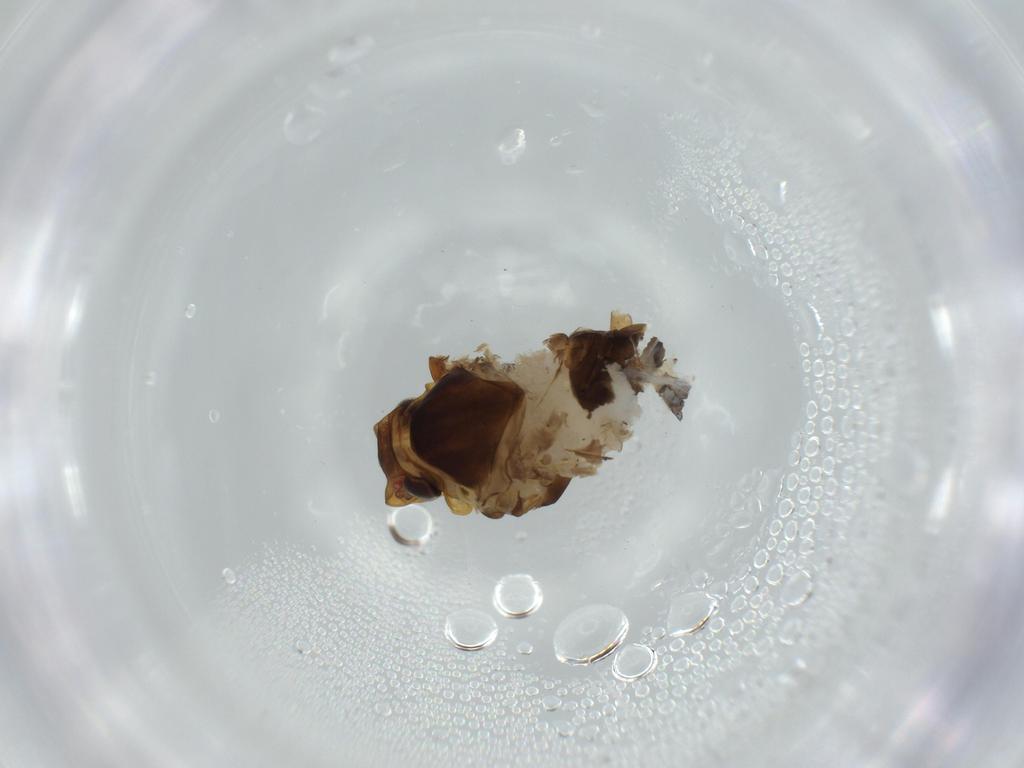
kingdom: Animalia
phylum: Arthropoda
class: Insecta
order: Hemiptera
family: Cixiidae
